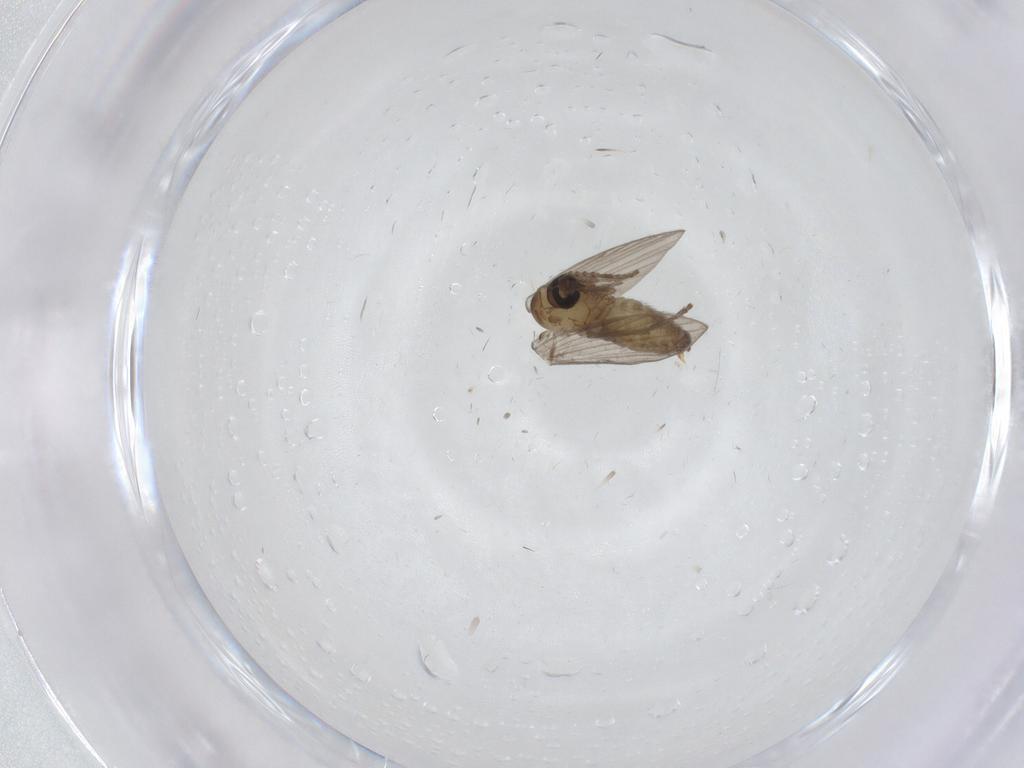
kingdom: Animalia
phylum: Arthropoda
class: Insecta
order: Diptera
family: Psychodidae
